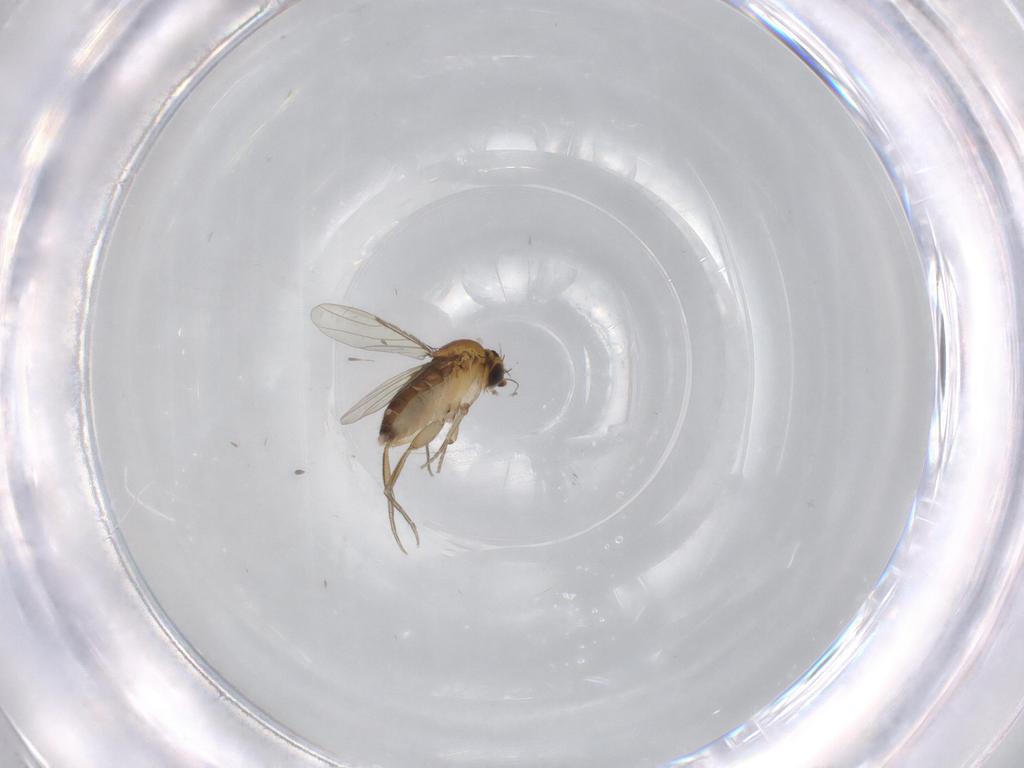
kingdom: Animalia
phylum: Arthropoda
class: Insecta
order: Diptera
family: Phoridae
